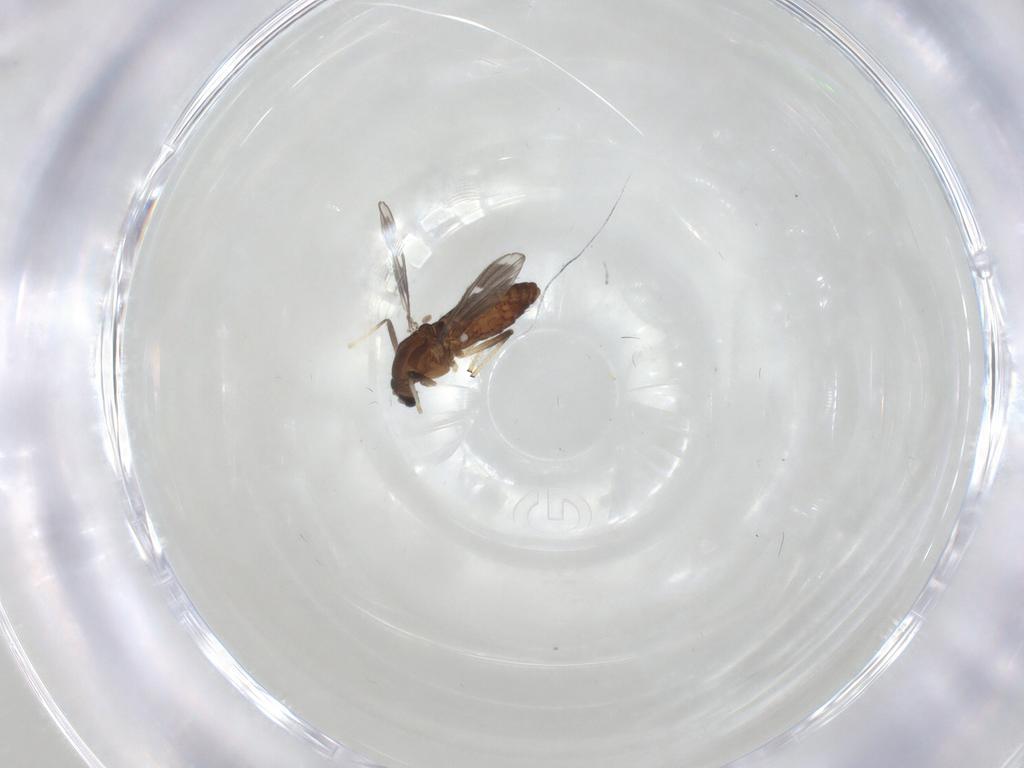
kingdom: Animalia
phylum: Arthropoda
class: Insecta
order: Diptera
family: Chironomidae
